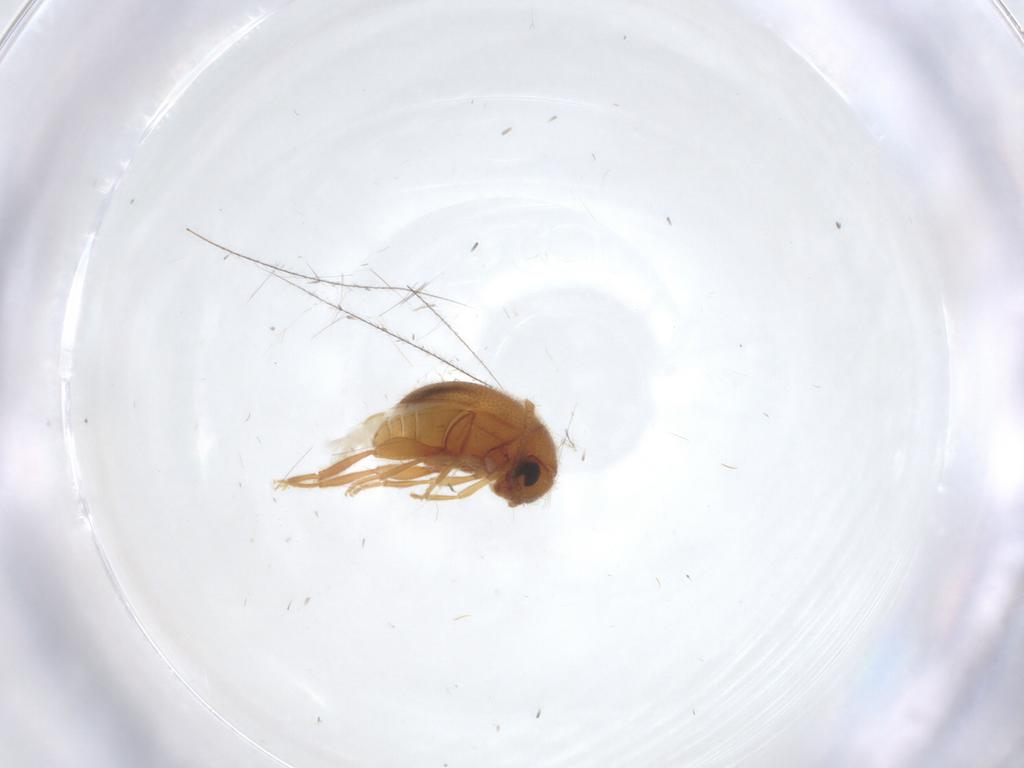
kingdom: Animalia
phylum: Arthropoda
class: Insecta
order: Coleoptera
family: Aderidae
